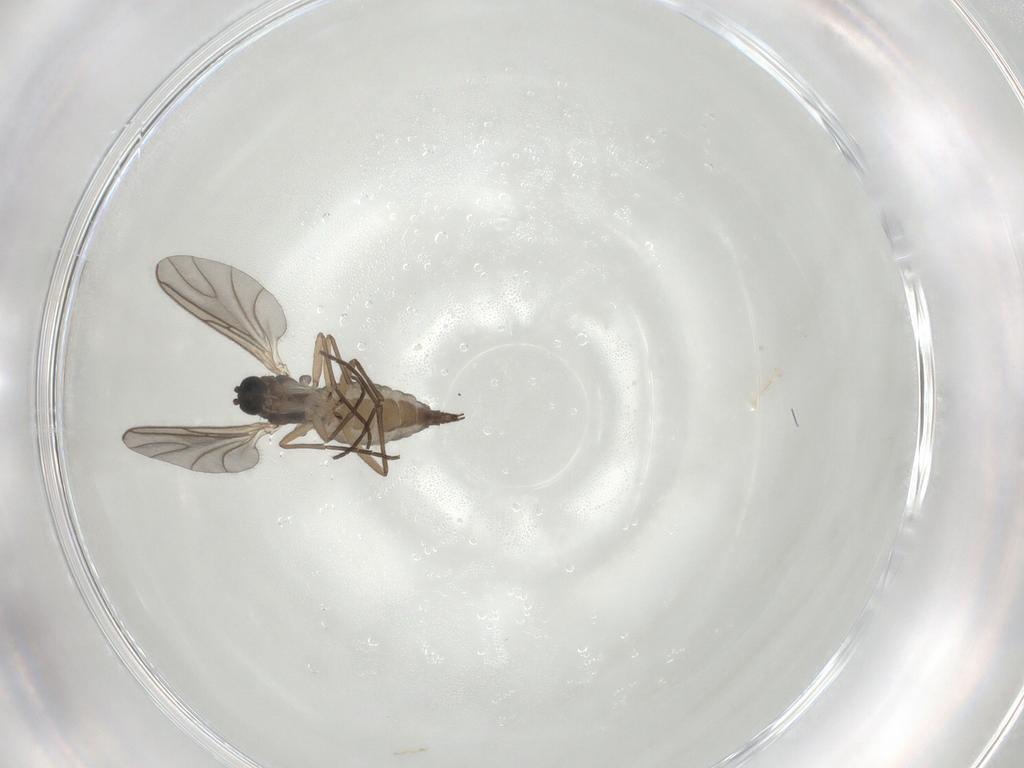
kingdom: Animalia
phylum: Arthropoda
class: Insecta
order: Diptera
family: Sciaridae
